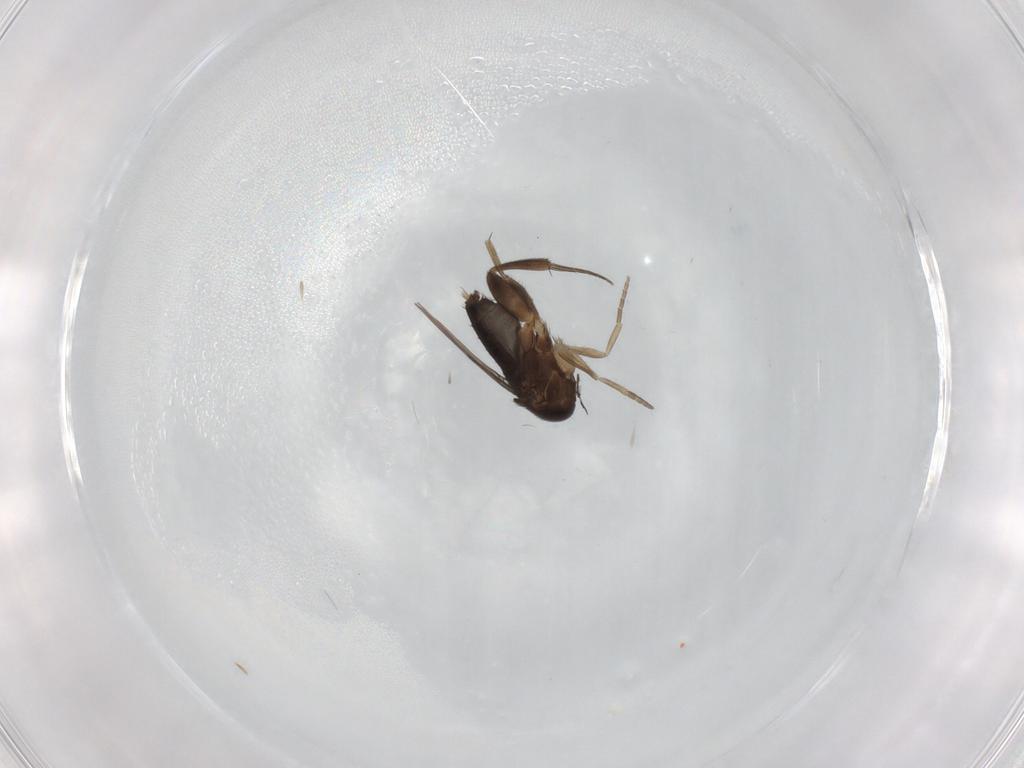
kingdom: Animalia
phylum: Arthropoda
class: Insecta
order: Diptera
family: Phoridae
